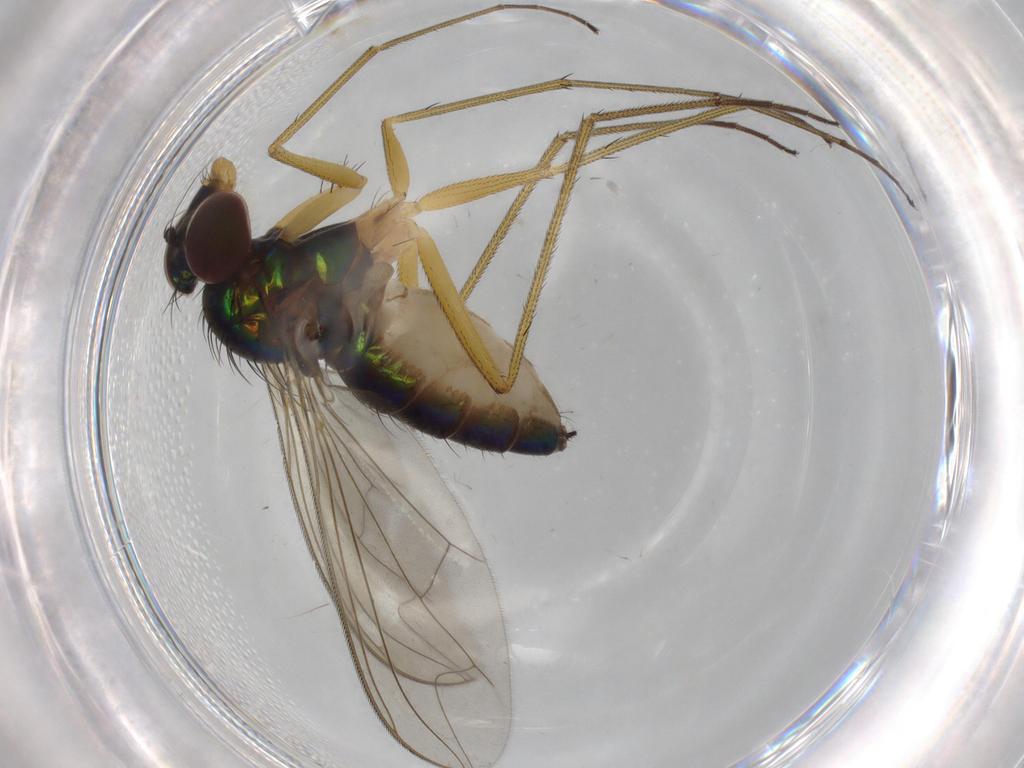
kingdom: Animalia
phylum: Arthropoda
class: Insecta
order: Diptera
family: Dolichopodidae
